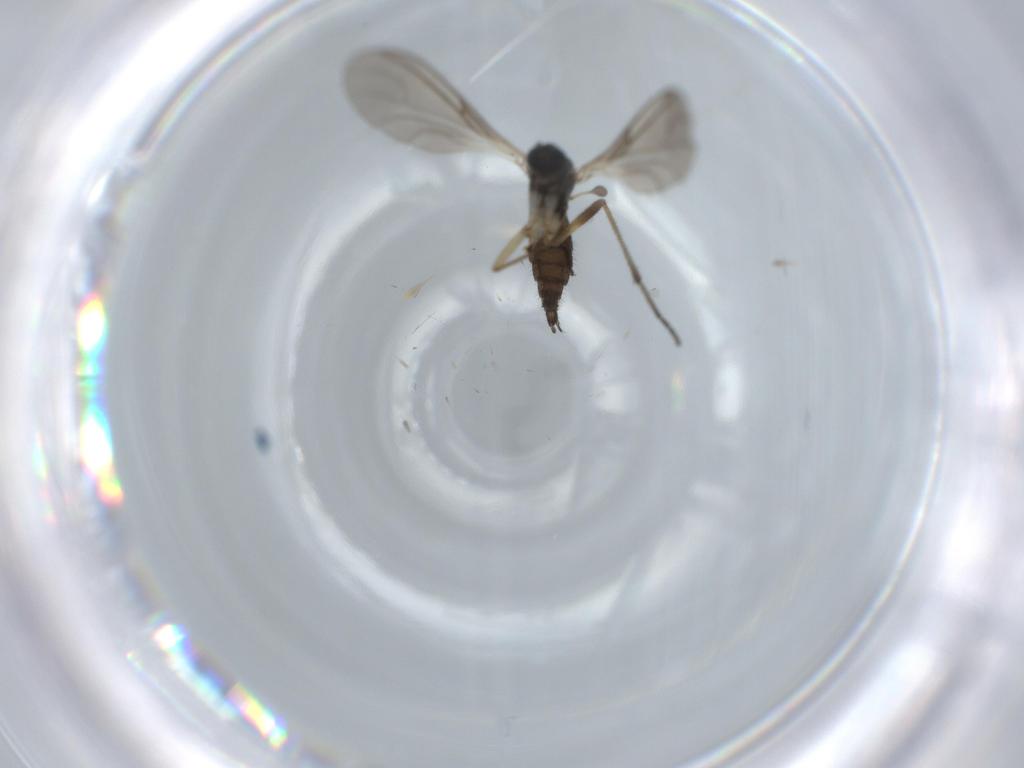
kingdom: Animalia
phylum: Arthropoda
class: Insecta
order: Diptera
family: Sciaridae
